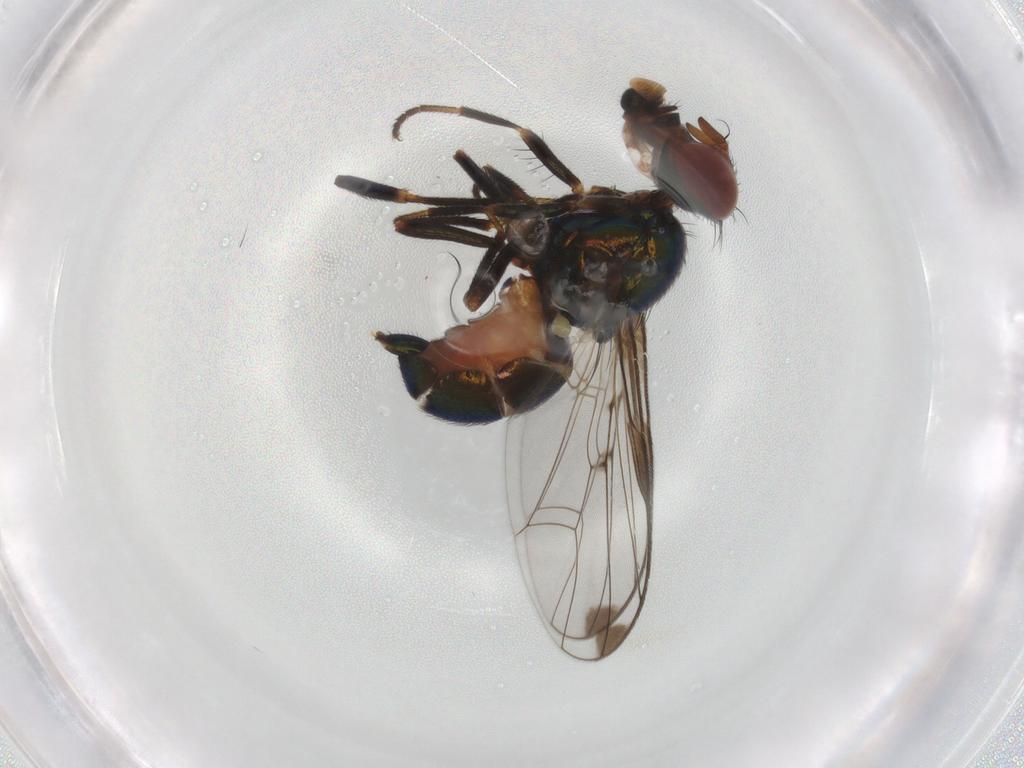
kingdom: Animalia
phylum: Arthropoda
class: Insecta
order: Diptera
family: Platystomatidae
